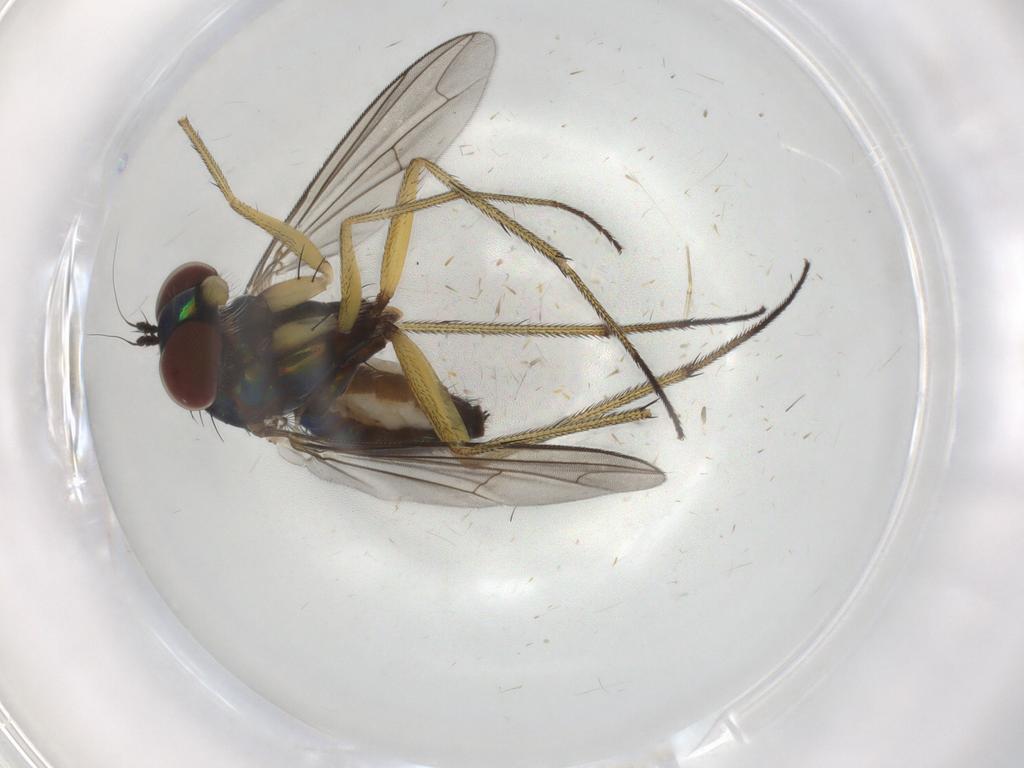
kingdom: Animalia
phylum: Arthropoda
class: Insecta
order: Diptera
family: Dolichopodidae
